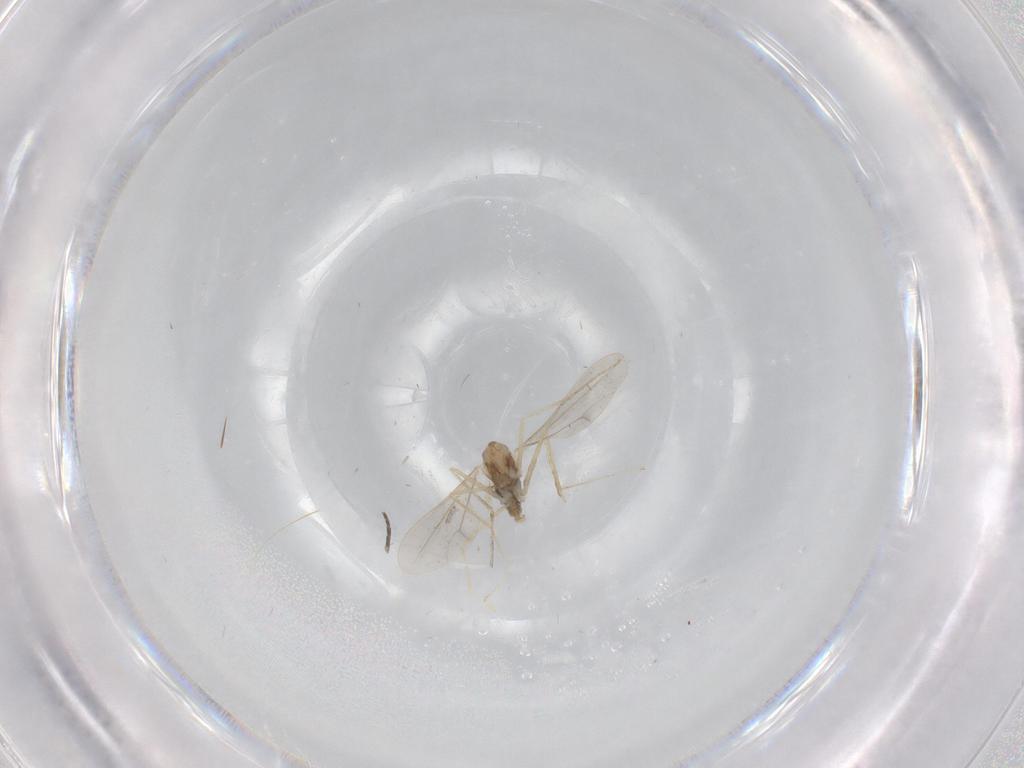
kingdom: Animalia
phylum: Arthropoda
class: Insecta
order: Diptera
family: Sciaridae
